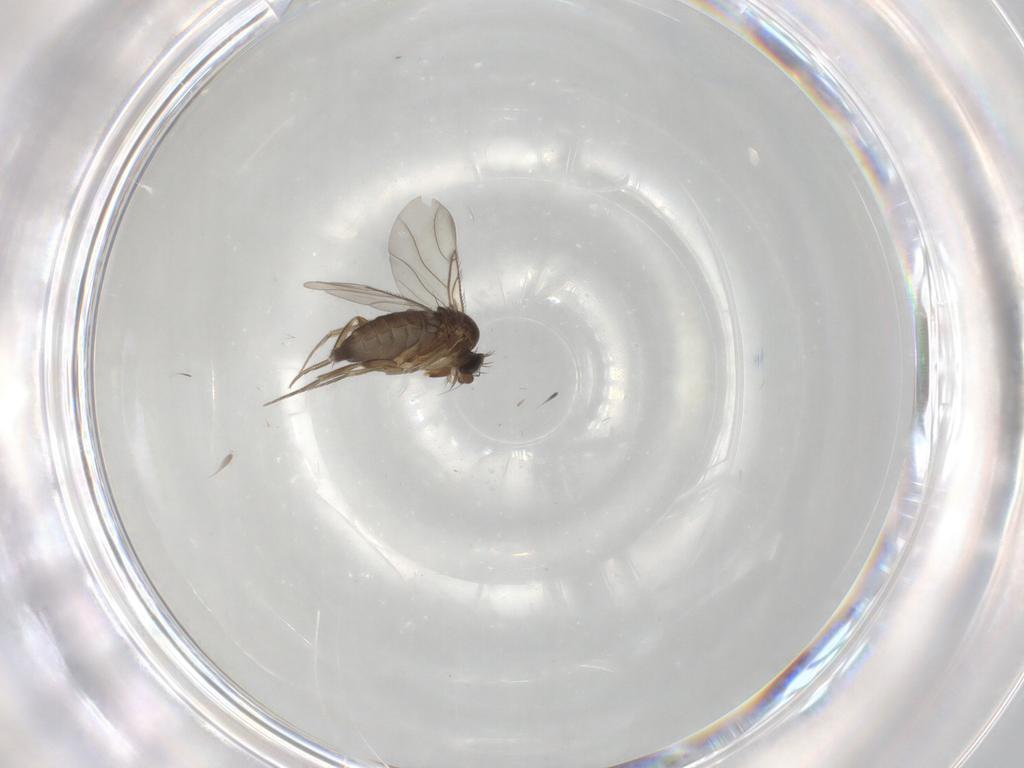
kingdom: Animalia
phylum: Arthropoda
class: Insecta
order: Diptera
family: Phoridae
